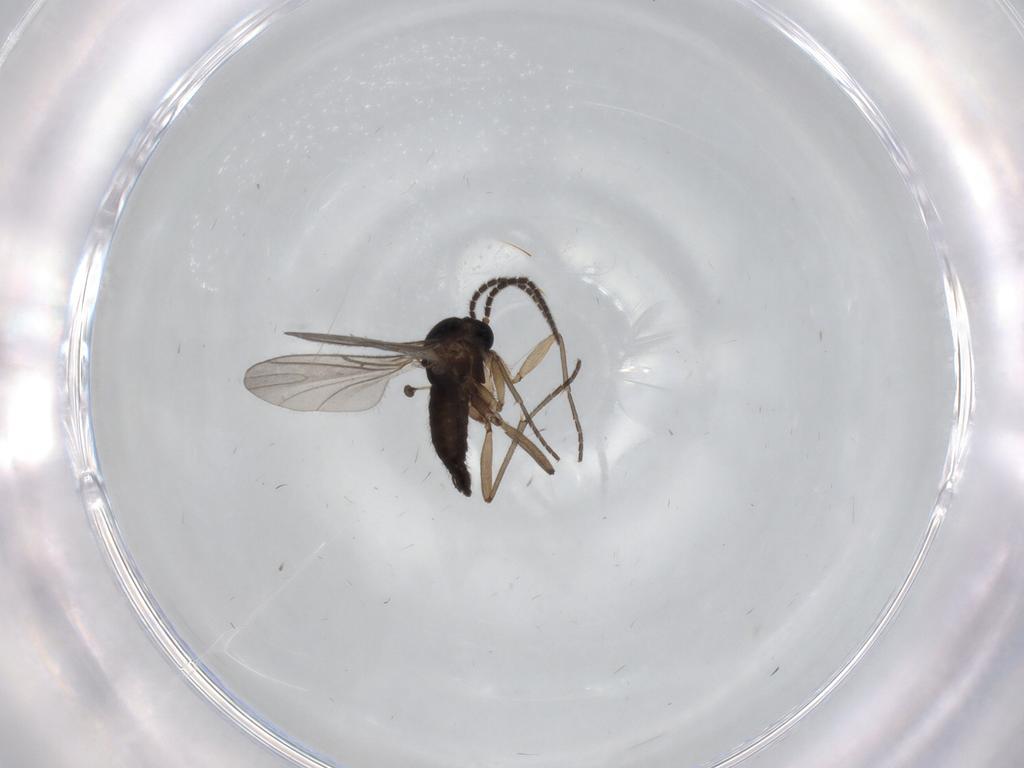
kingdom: Animalia
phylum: Arthropoda
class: Insecta
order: Diptera
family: Sciaridae
